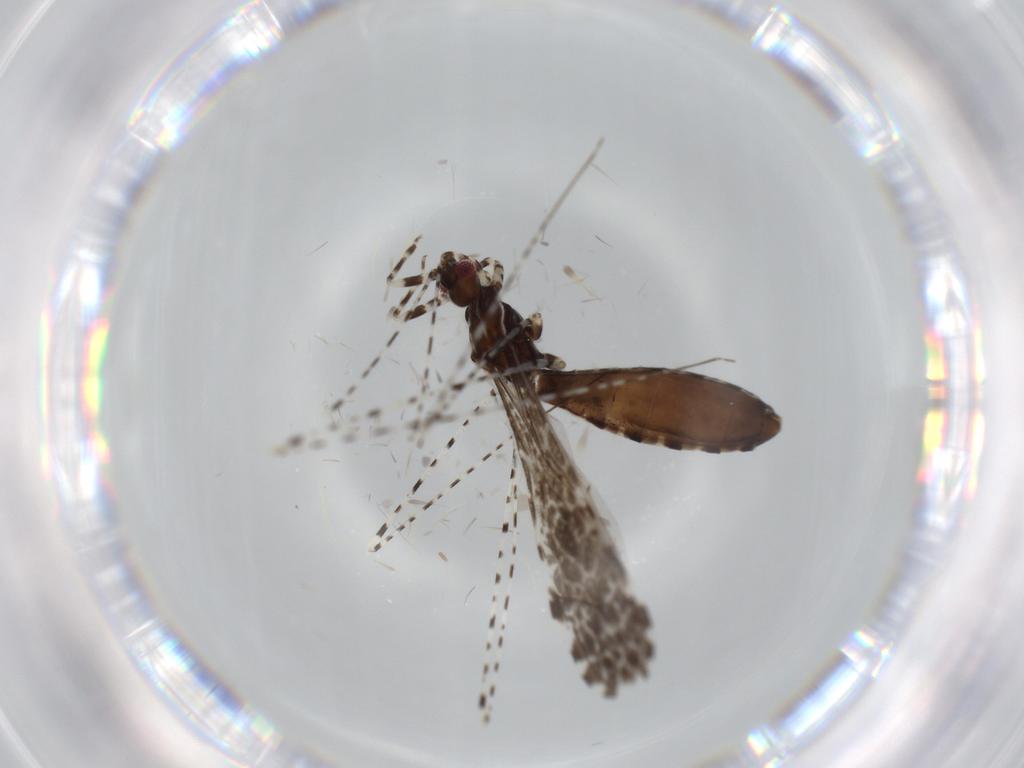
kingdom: Animalia
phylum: Arthropoda
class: Insecta
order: Hemiptera
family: Reduviidae
